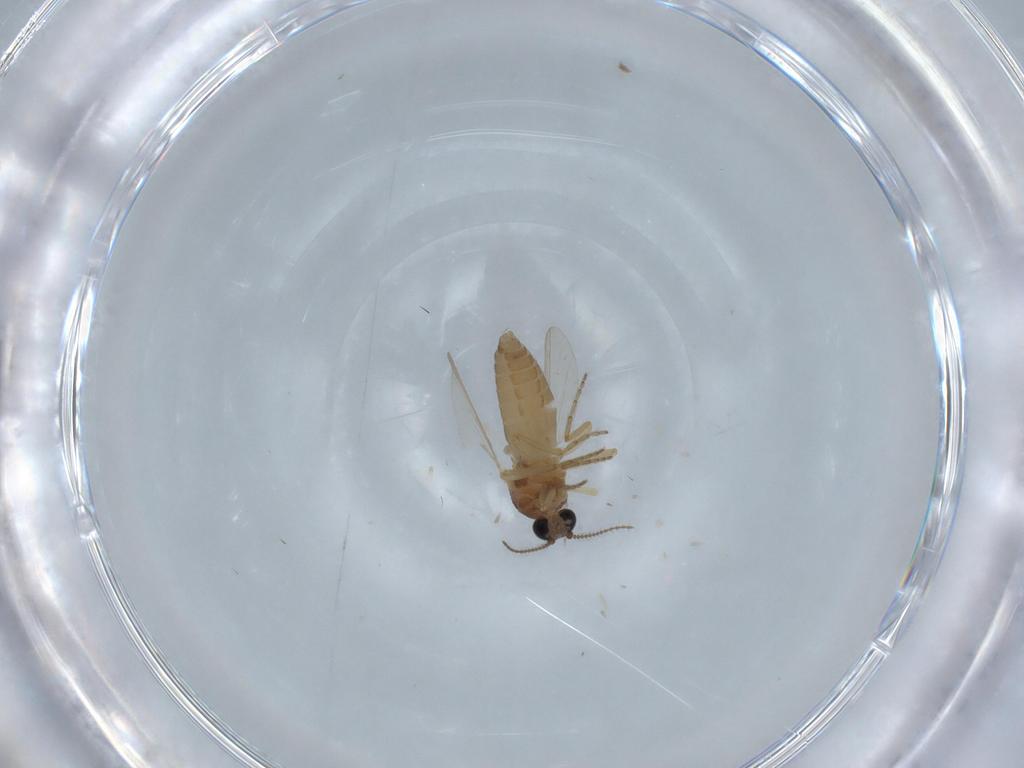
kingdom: Animalia
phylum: Arthropoda
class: Insecta
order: Diptera
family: Ceratopogonidae
